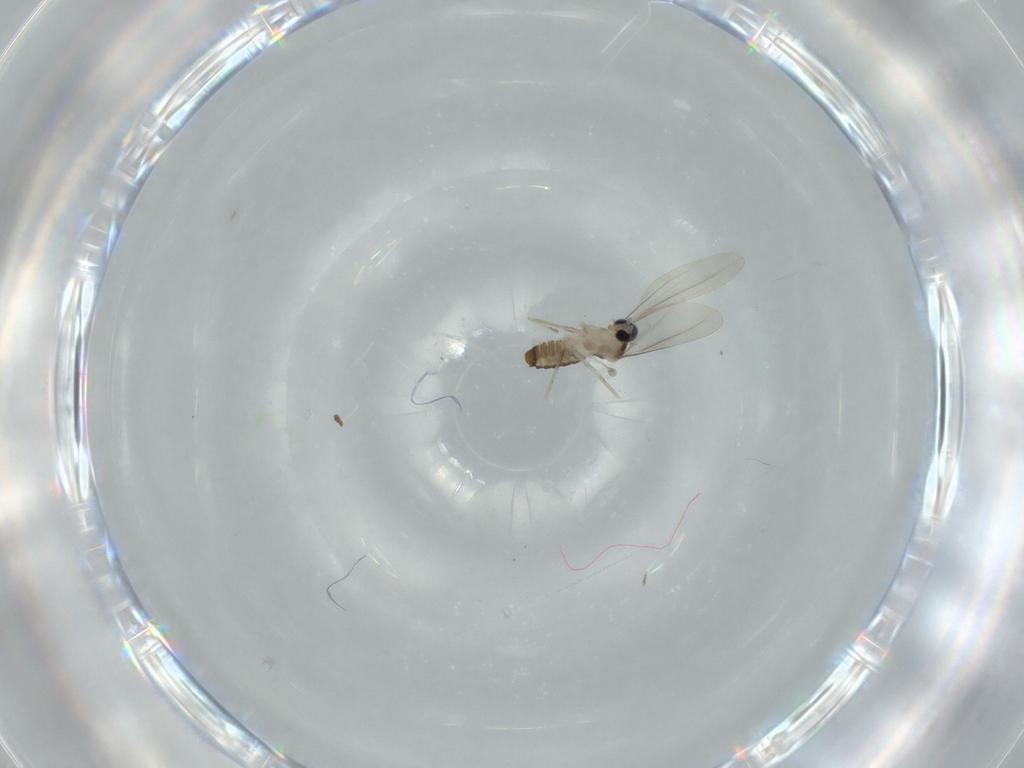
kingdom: Animalia
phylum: Arthropoda
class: Insecta
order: Diptera
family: Cecidomyiidae
